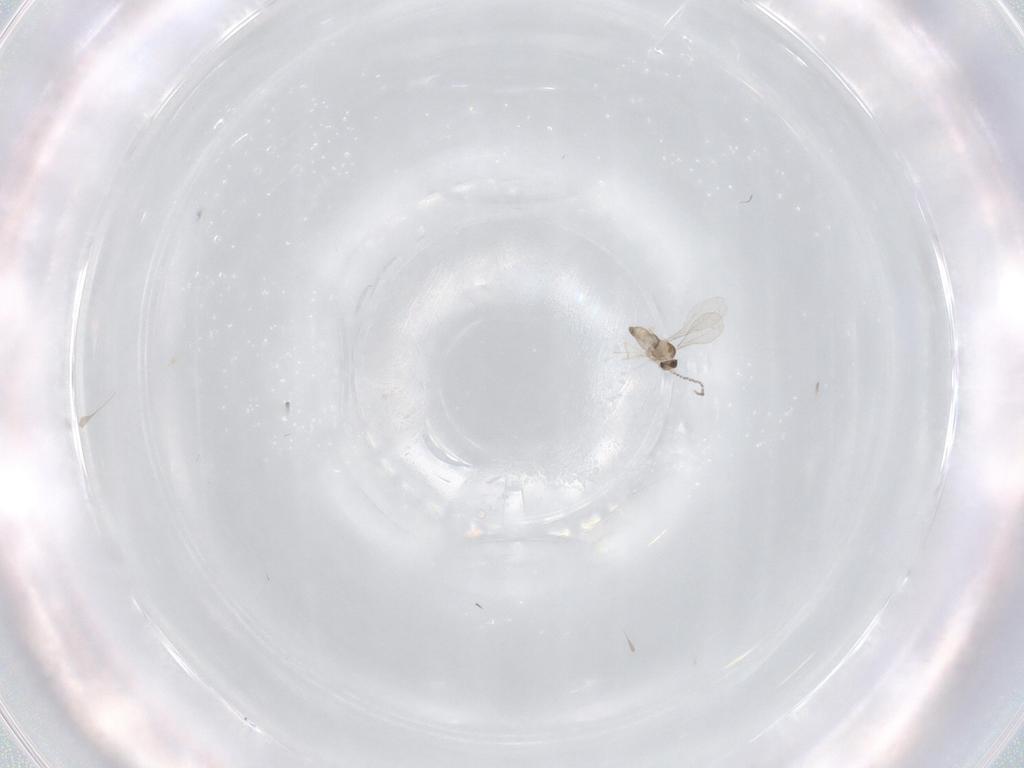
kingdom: Animalia
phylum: Arthropoda
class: Insecta
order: Diptera
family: Cecidomyiidae
